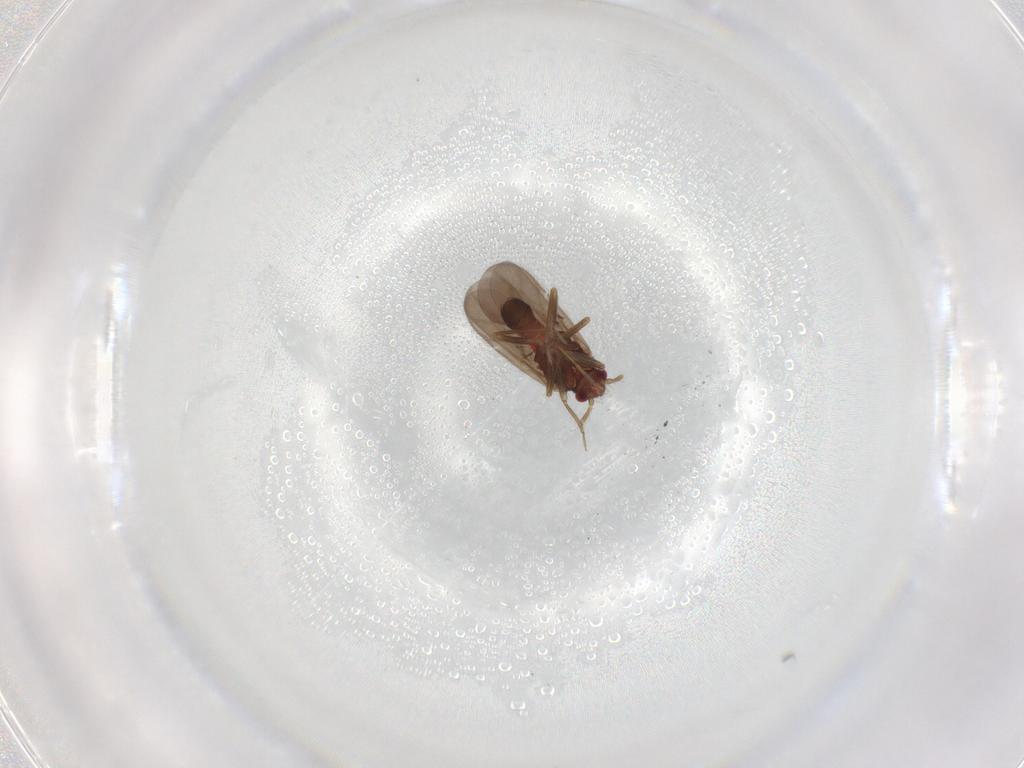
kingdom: Animalia
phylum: Arthropoda
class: Insecta
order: Hemiptera
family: Ceratocombidae
